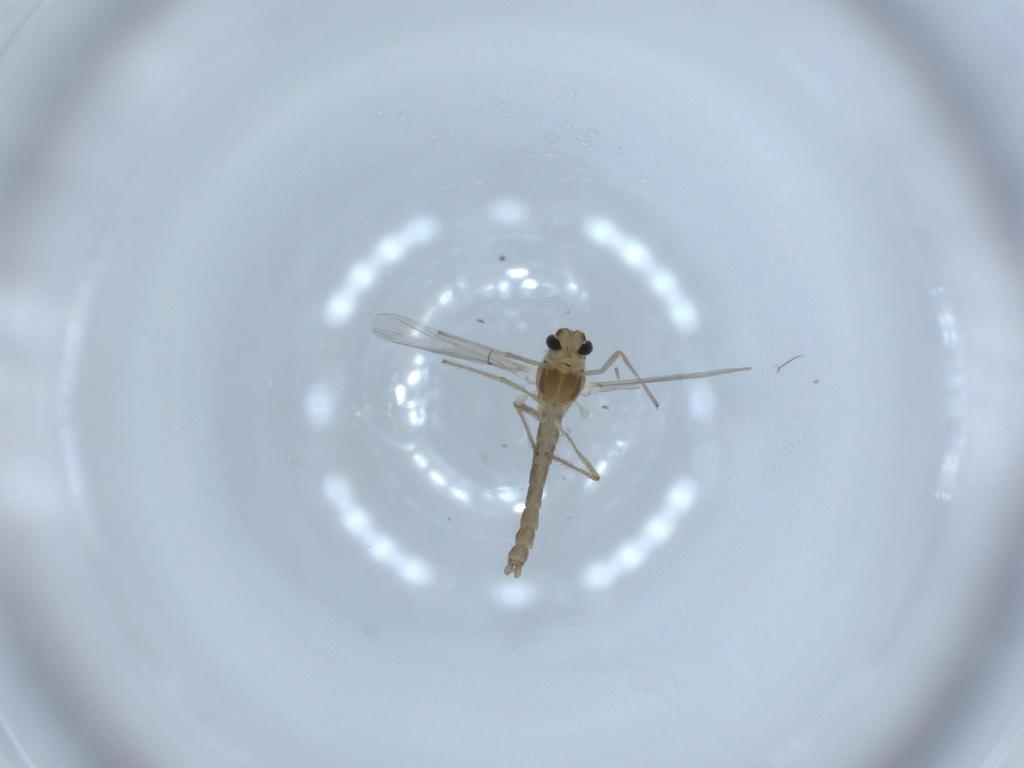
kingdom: Animalia
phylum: Arthropoda
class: Insecta
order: Diptera
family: Chironomidae
